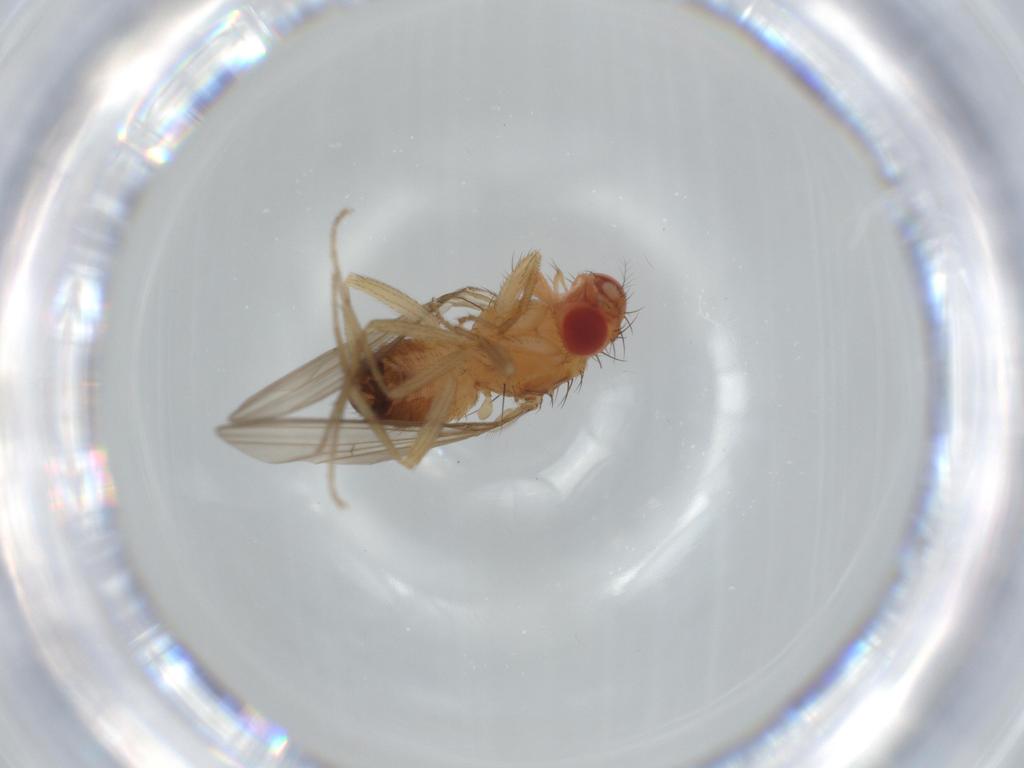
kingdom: Animalia
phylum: Arthropoda
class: Insecta
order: Diptera
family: Drosophilidae
